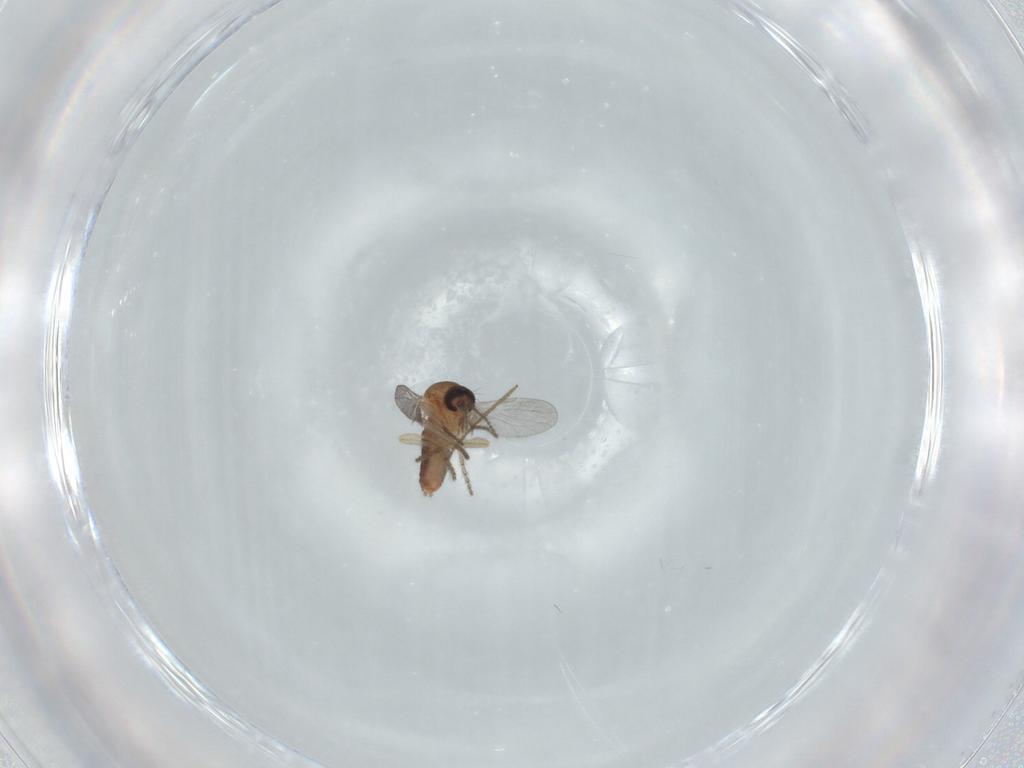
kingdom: Animalia
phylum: Arthropoda
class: Insecta
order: Diptera
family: Ceratopogonidae
